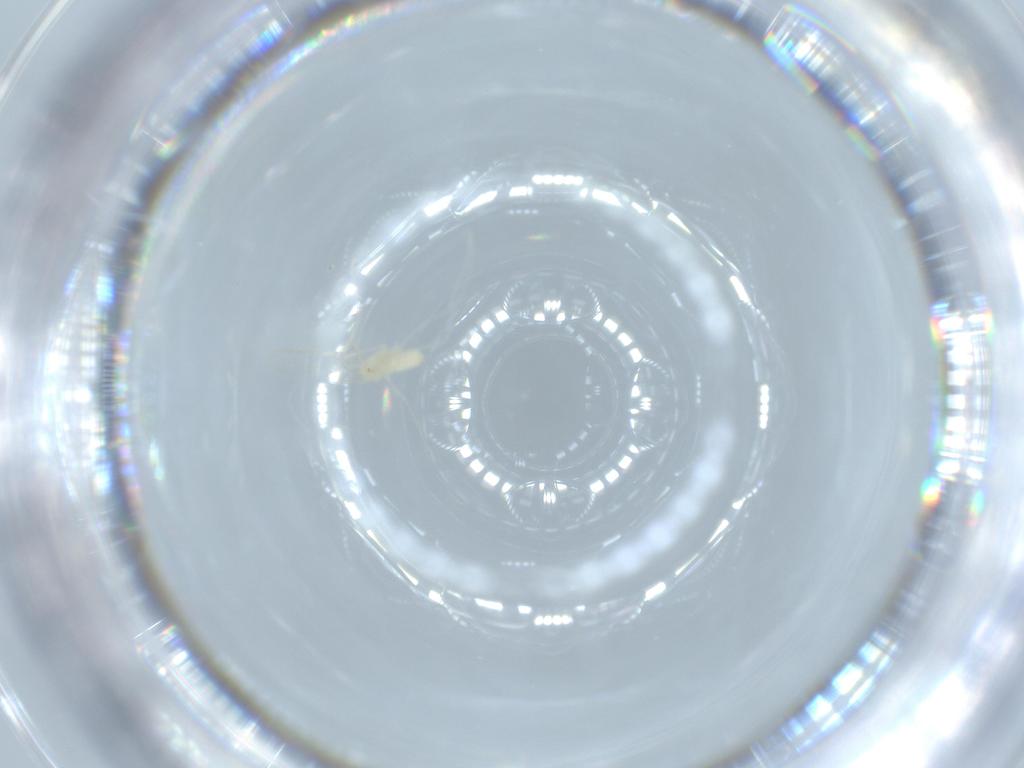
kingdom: Animalia
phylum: Arthropoda
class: Insecta
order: Diptera
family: Cecidomyiidae
